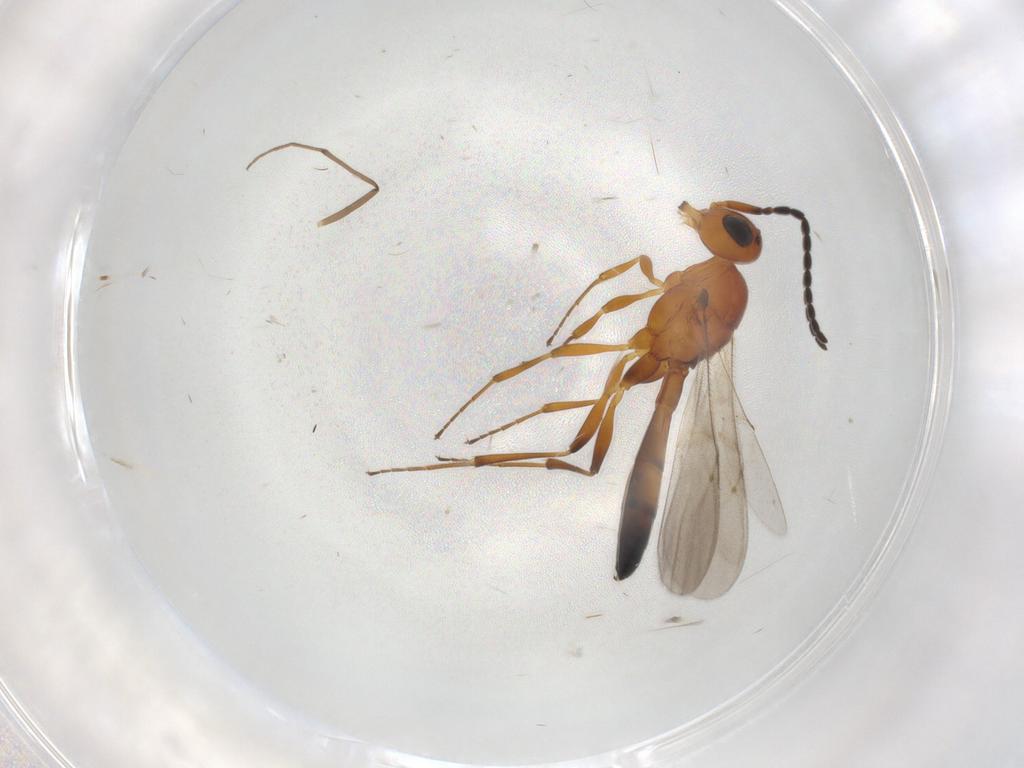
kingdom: Animalia
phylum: Arthropoda
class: Insecta
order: Hymenoptera
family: Scelionidae
